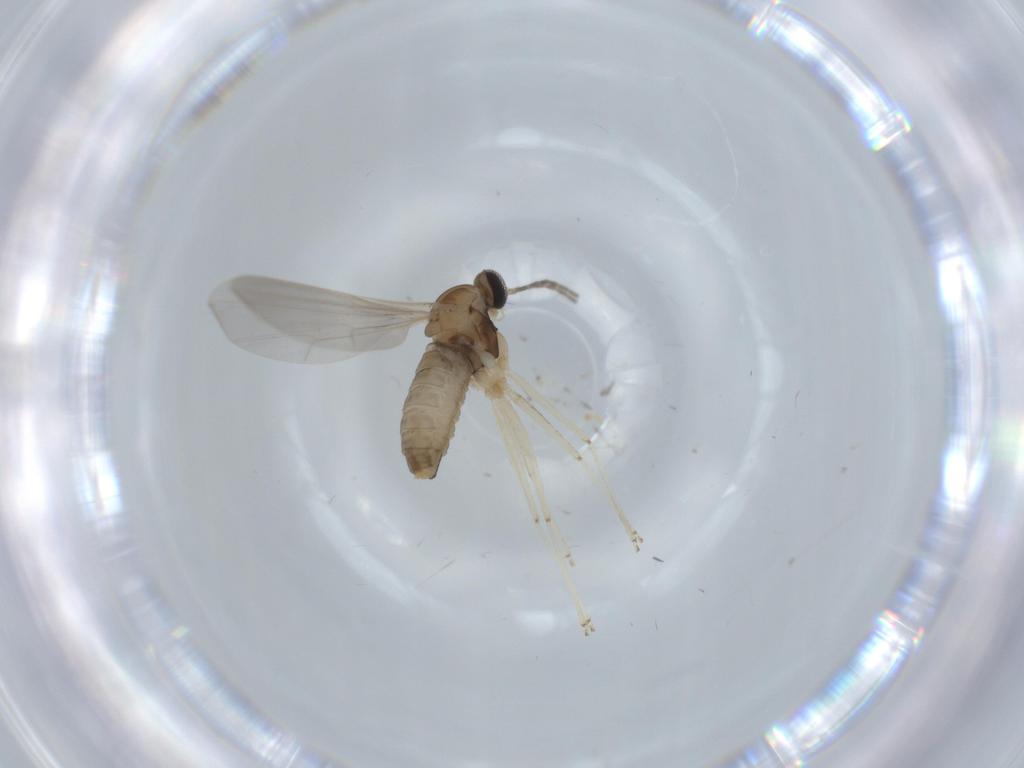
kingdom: Animalia
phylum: Arthropoda
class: Insecta
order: Diptera
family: Cecidomyiidae
